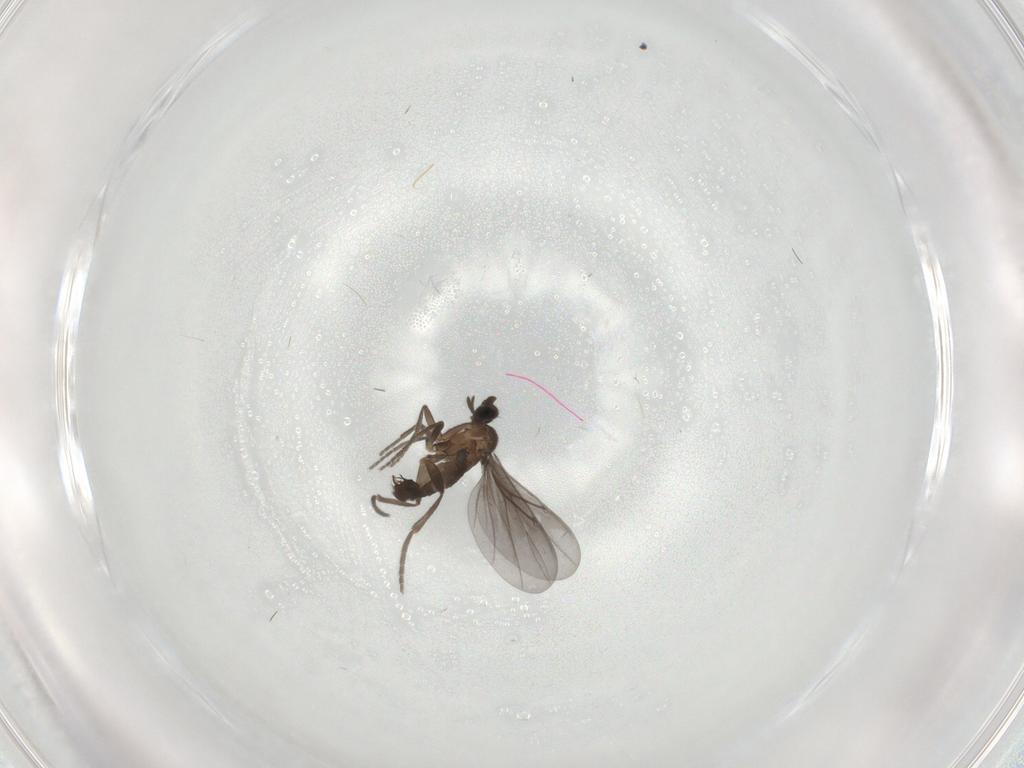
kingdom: Animalia
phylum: Arthropoda
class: Insecta
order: Diptera
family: Phoridae
